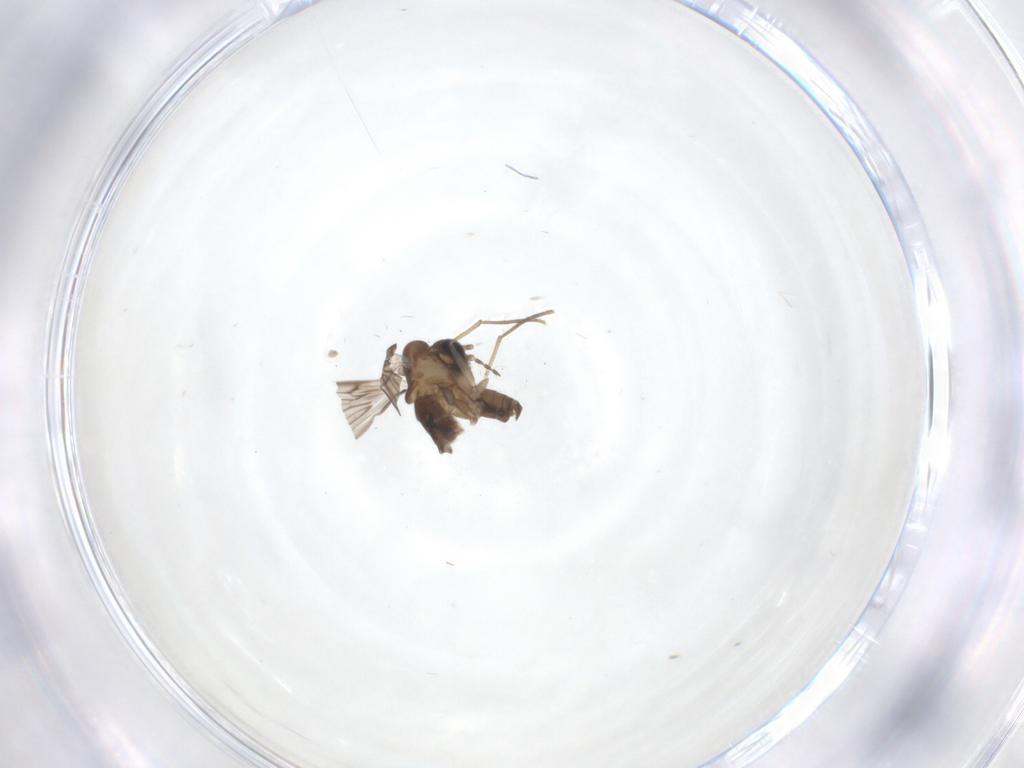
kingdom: Animalia
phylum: Arthropoda
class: Insecta
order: Diptera
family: Psychodidae
